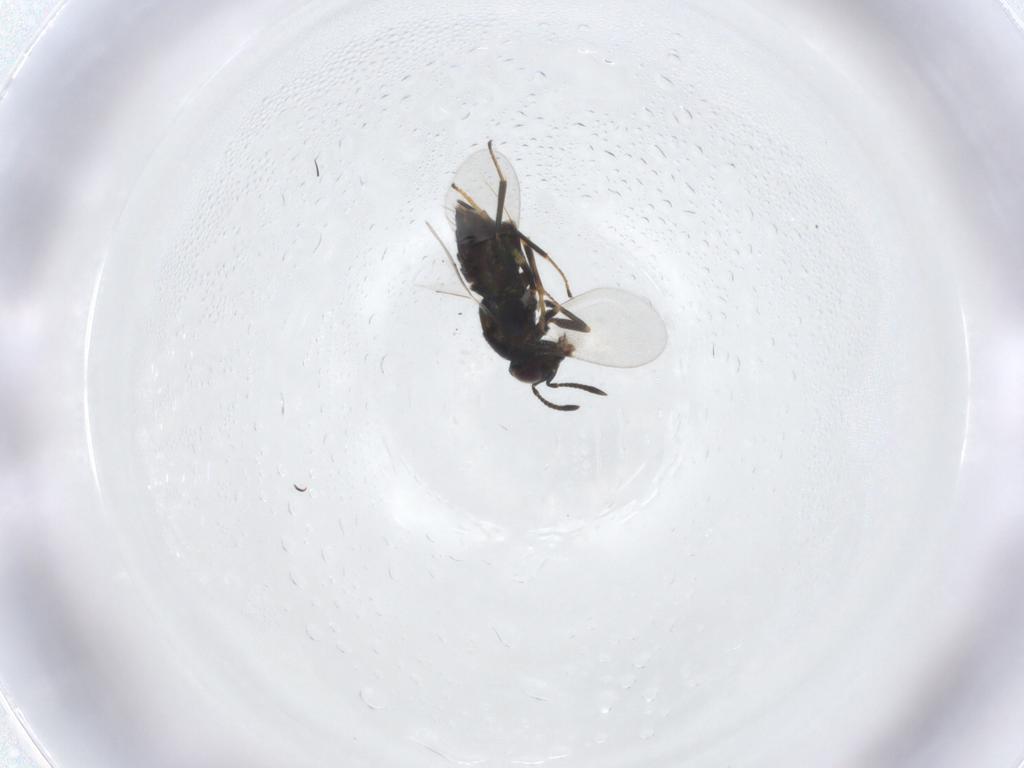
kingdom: Animalia
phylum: Arthropoda
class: Insecta
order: Hymenoptera
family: Encyrtidae
